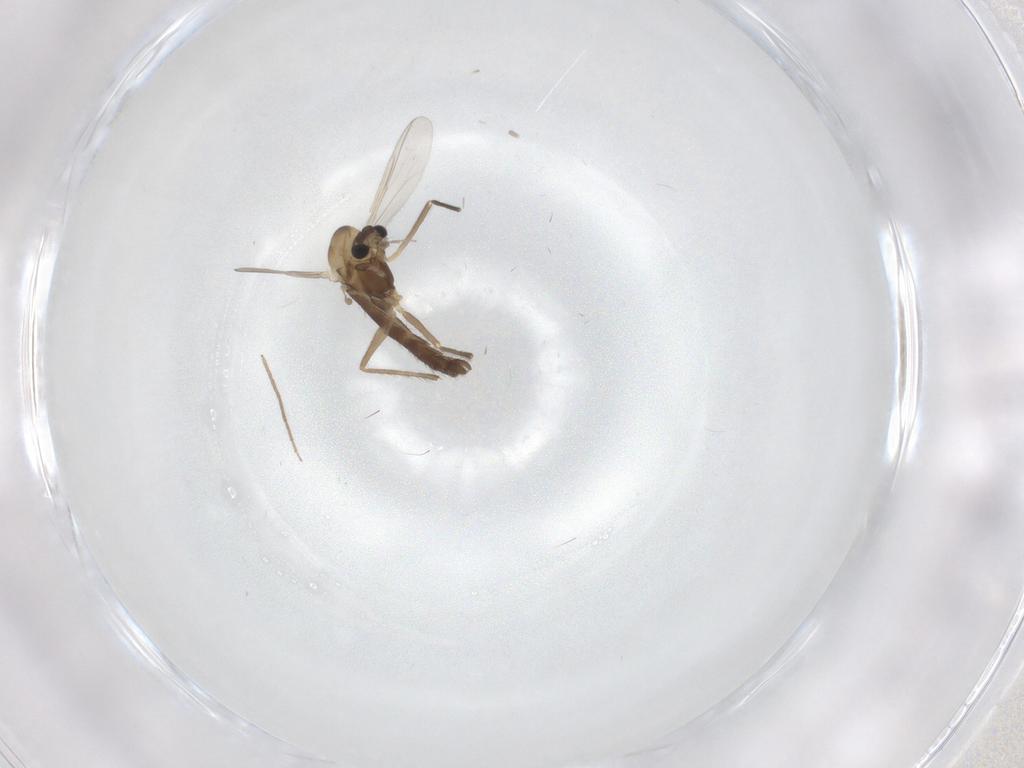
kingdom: Animalia
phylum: Arthropoda
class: Insecta
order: Diptera
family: Chironomidae
